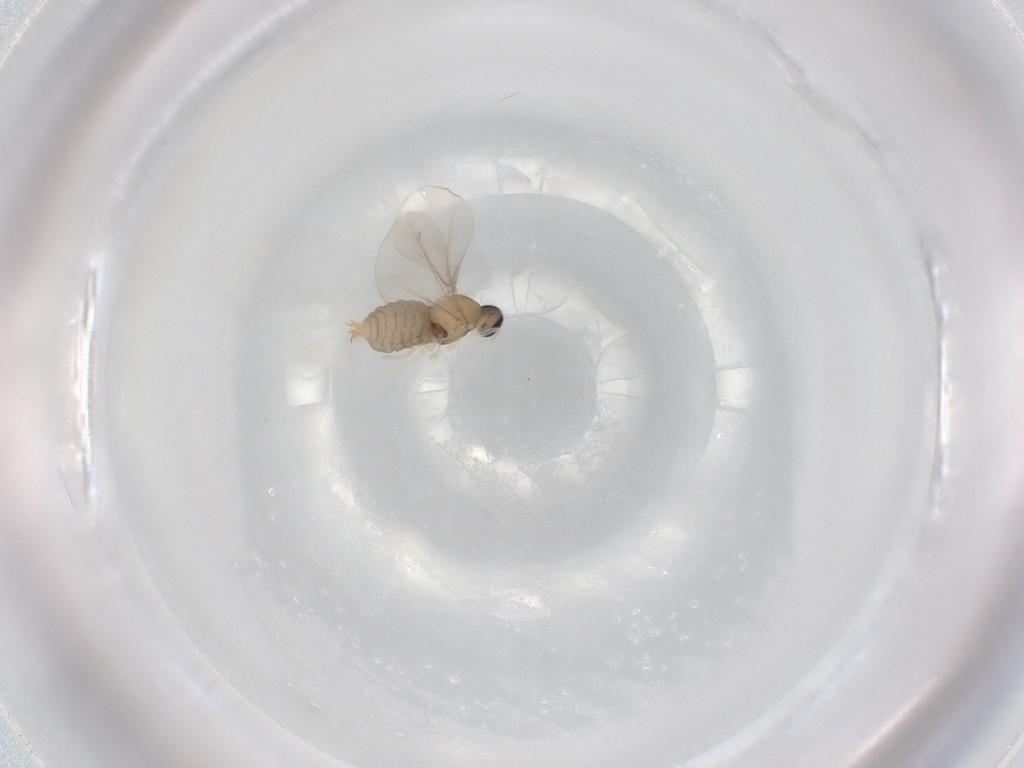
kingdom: Animalia
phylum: Arthropoda
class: Insecta
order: Diptera
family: Cecidomyiidae
